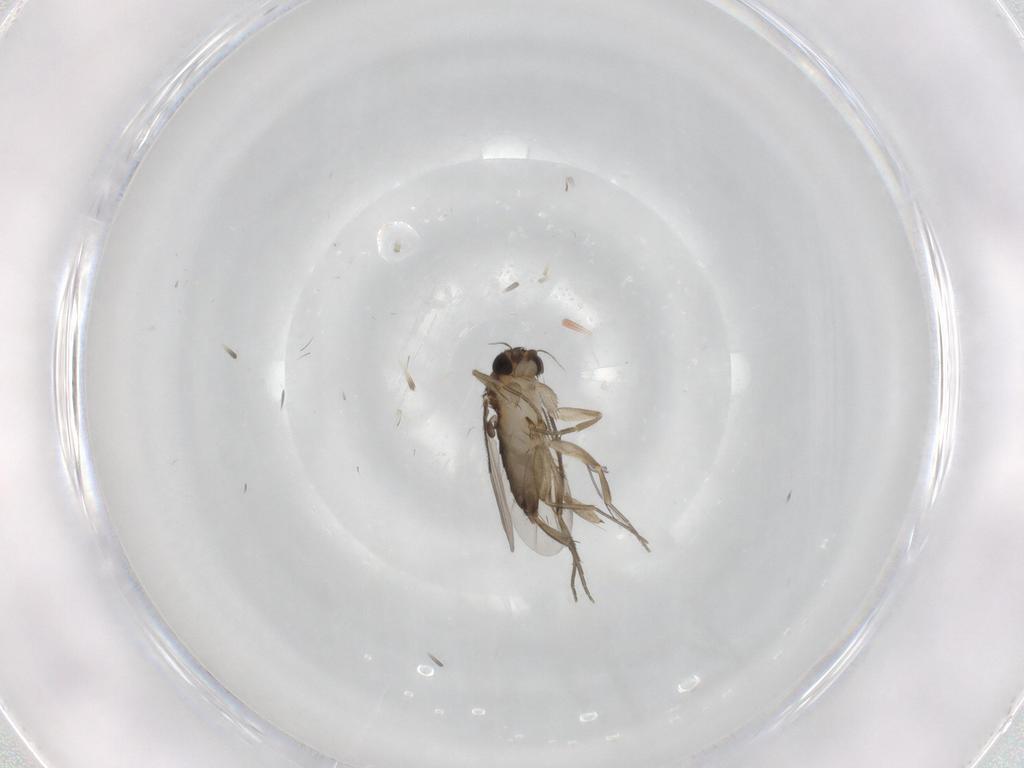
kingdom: Animalia
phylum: Arthropoda
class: Insecta
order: Diptera
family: Phoridae
